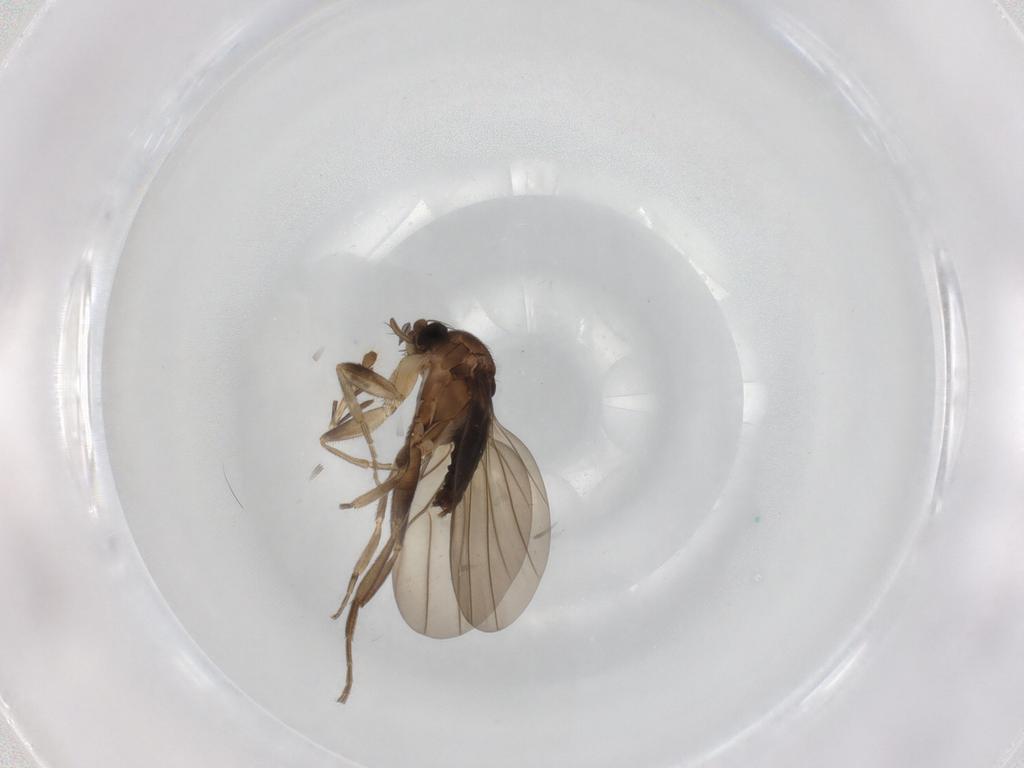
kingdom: Animalia
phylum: Arthropoda
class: Insecta
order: Diptera
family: Phoridae
